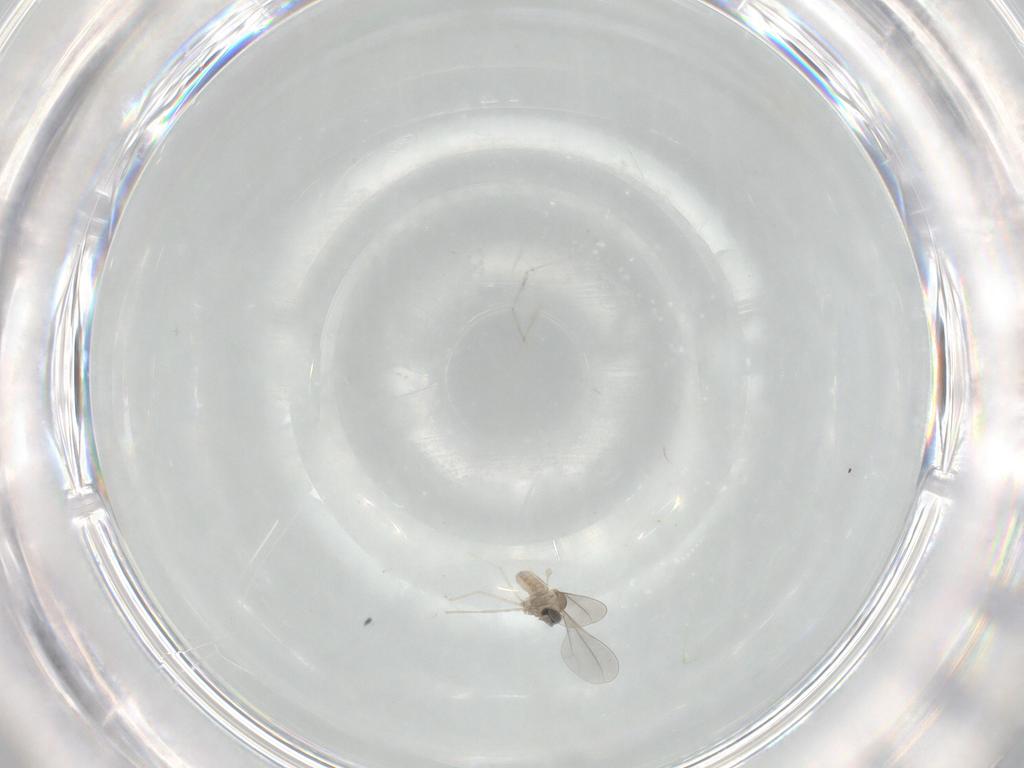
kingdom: Animalia
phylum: Arthropoda
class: Insecta
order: Diptera
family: Cecidomyiidae
